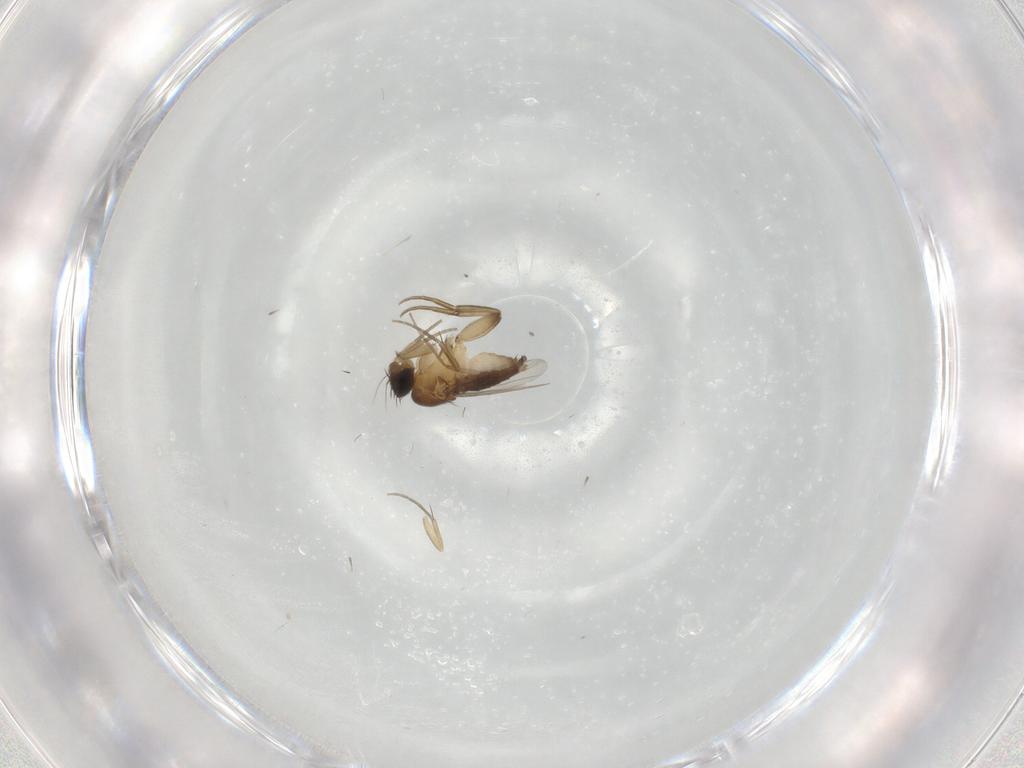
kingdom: Animalia
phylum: Arthropoda
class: Insecta
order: Diptera
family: Phoridae
